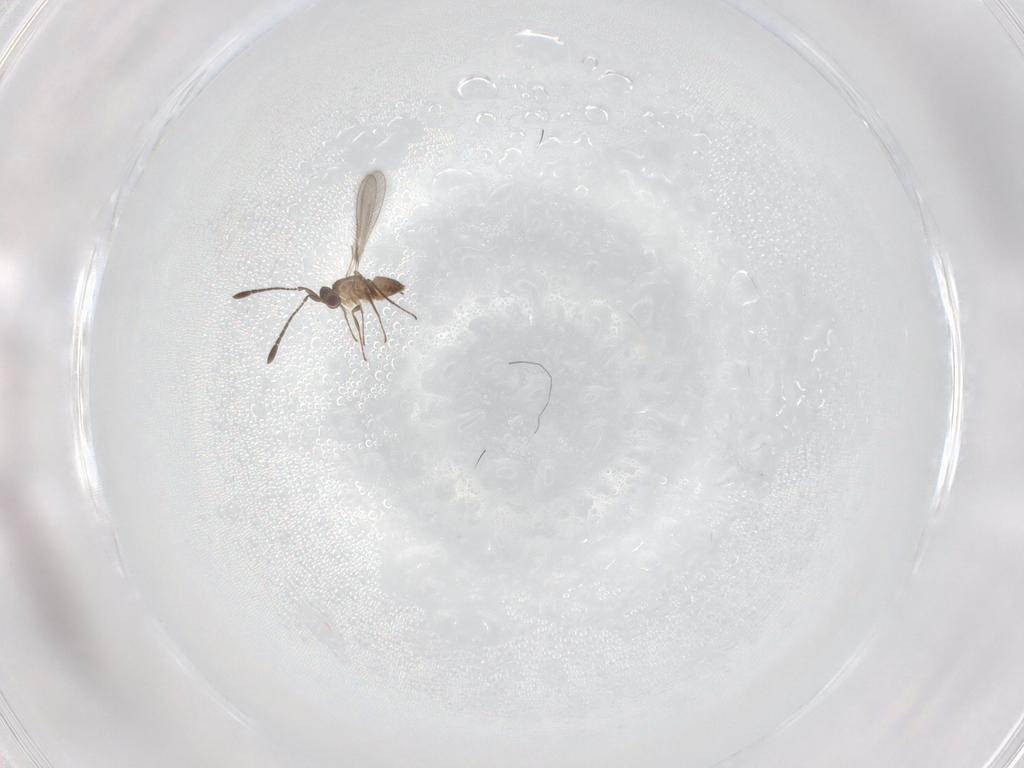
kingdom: Animalia
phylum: Arthropoda
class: Insecta
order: Hymenoptera
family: Mymaridae
